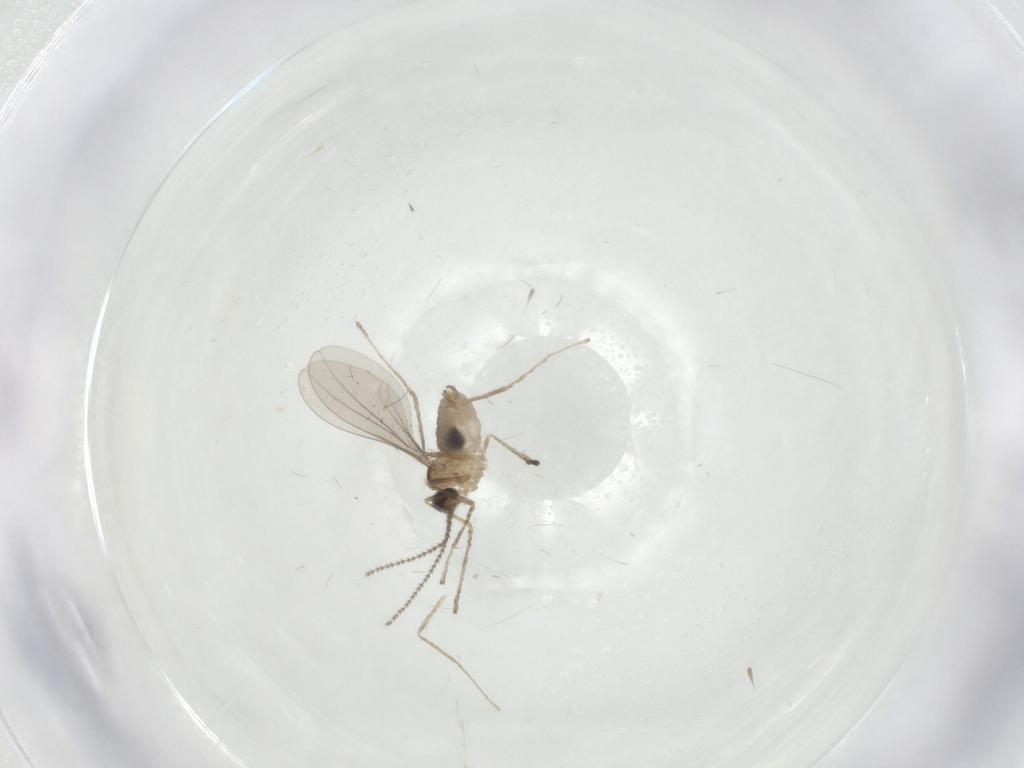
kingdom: Animalia
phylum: Arthropoda
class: Insecta
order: Diptera
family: Cecidomyiidae
